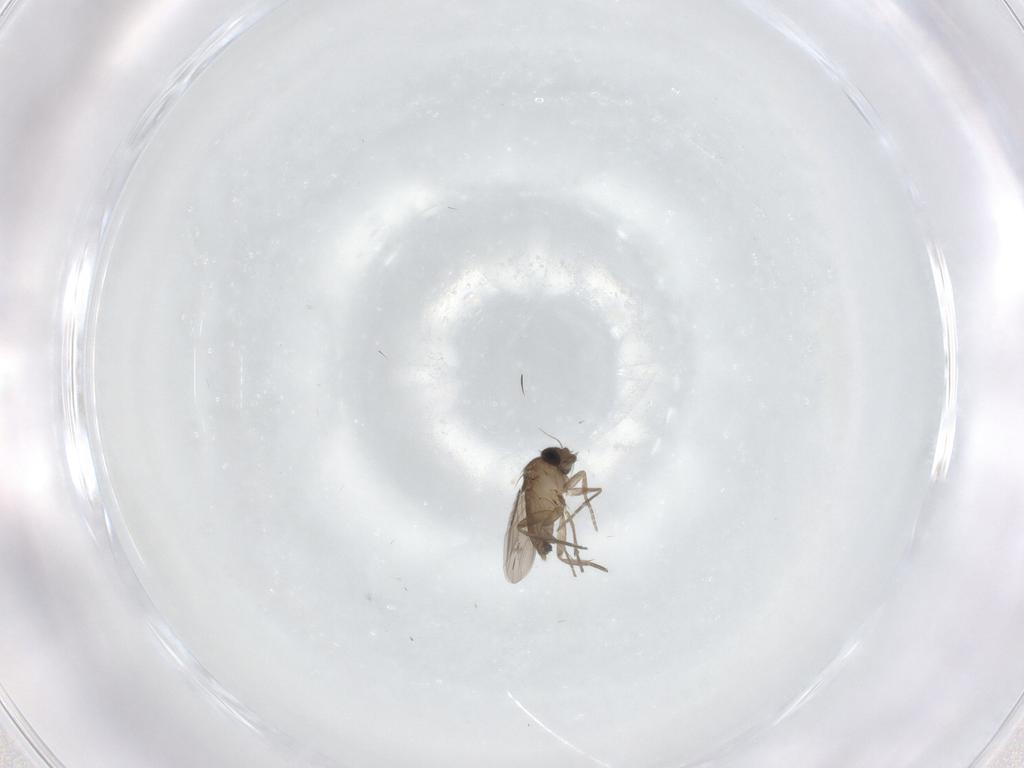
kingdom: Animalia
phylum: Arthropoda
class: Insecta
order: Diptera
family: Phoridae
